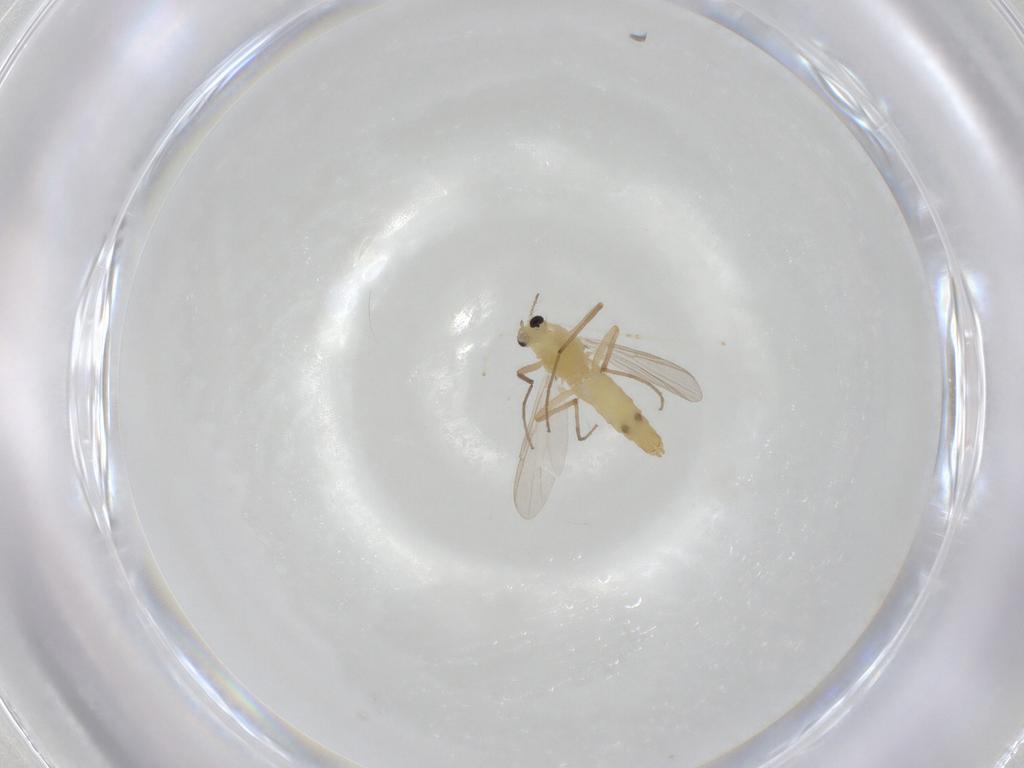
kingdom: Animalia
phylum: Arthropoda
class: Insecta
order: Diptera
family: Chironomidae
